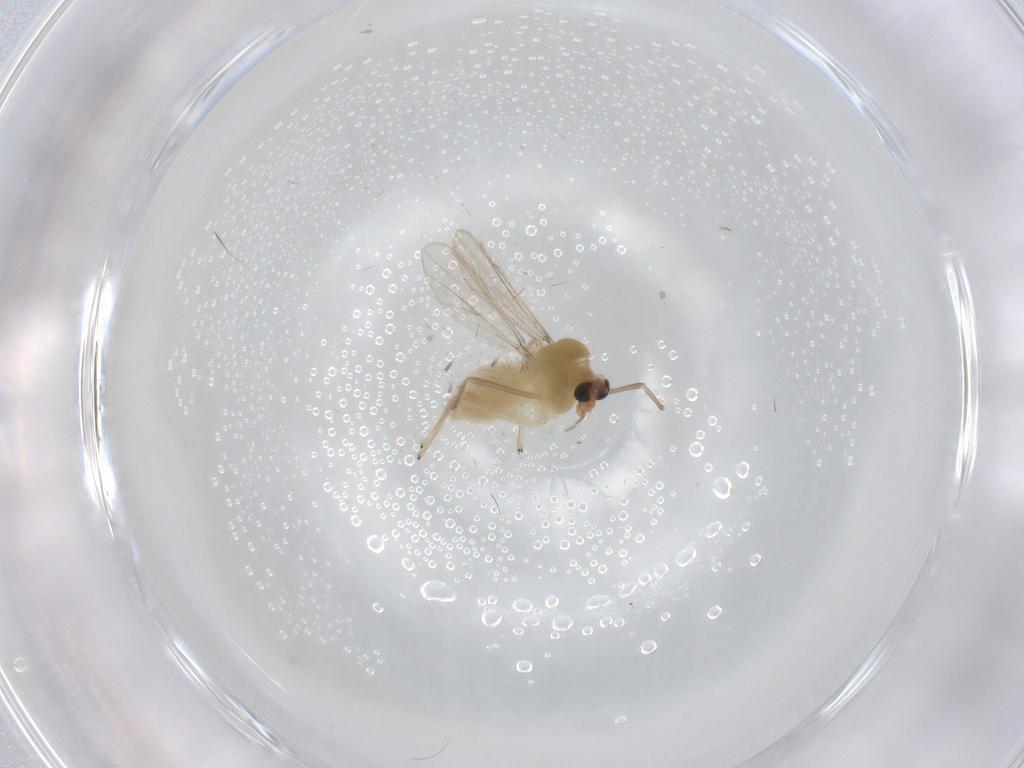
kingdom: Animalia
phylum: Arthropoda
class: Insecta
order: Diptera
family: Chironomidae
